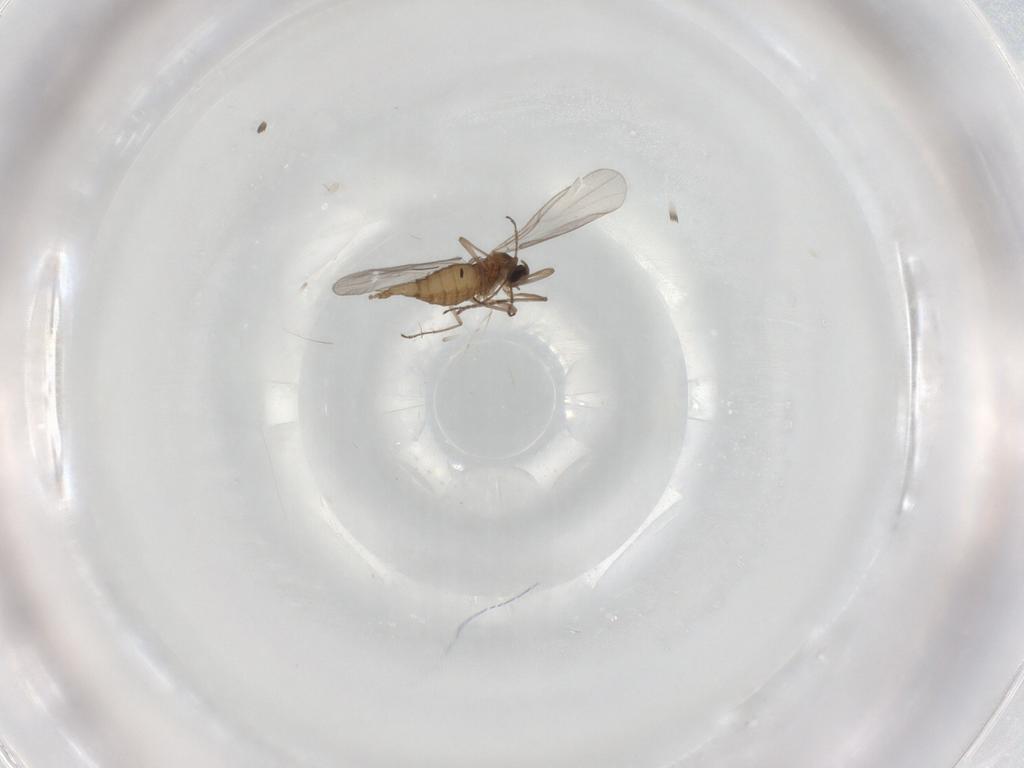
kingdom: Animalia
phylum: Arthropoda
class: Insecta
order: Diptera
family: Cecidomyiidae
